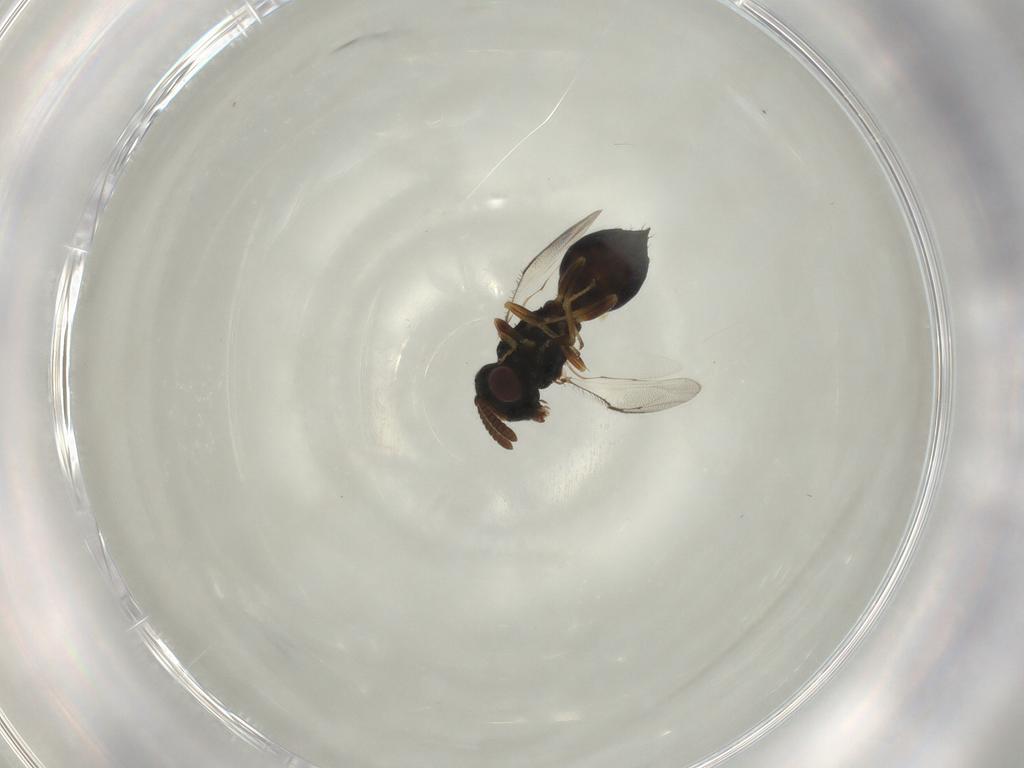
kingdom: Animalia
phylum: Arthropoda
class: Insecta
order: Hymenoptera
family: Pteromalidae
